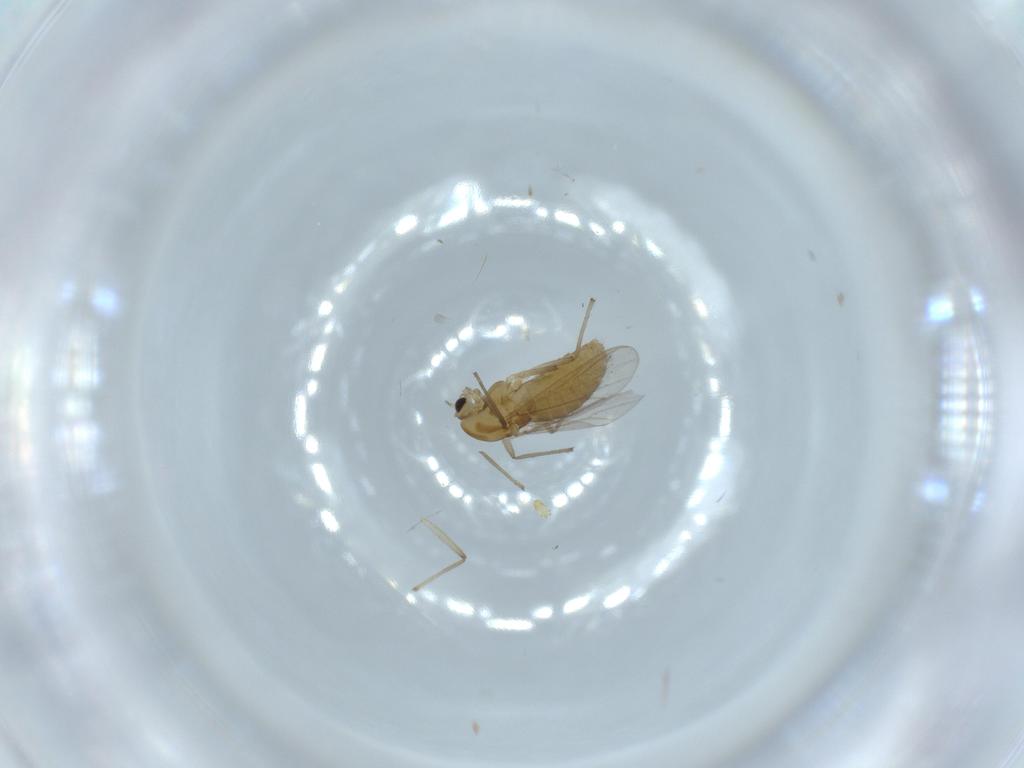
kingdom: Animalia
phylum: Arthropoda
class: Insecta
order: Diptera
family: Chironomidae
